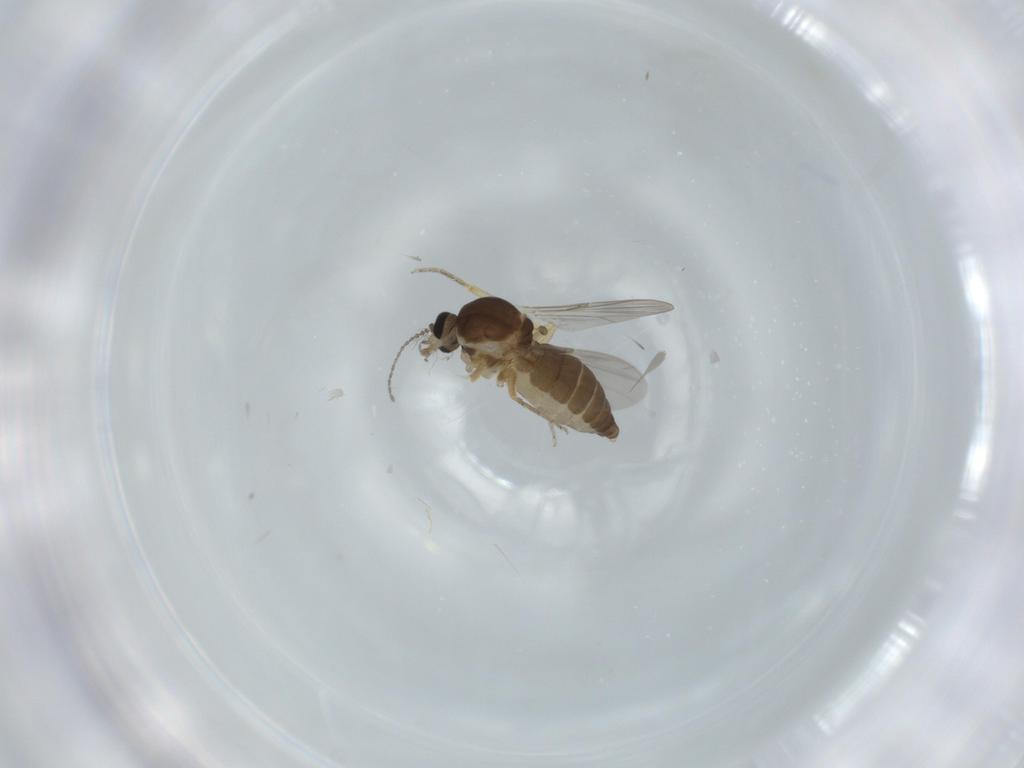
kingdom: Animalia
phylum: Arthropoda
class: Insecta
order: Diptera
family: Ceratopogonidae
